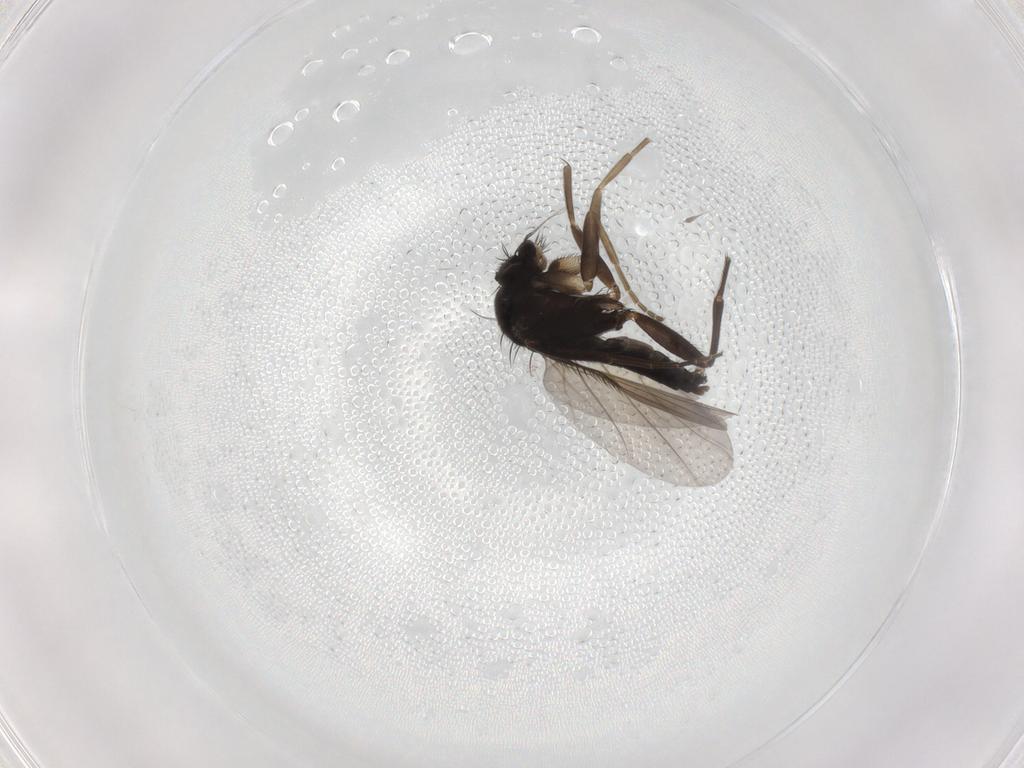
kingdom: Animalia
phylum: Arthropoda
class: Insecta
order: Diptera
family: Phoridae
